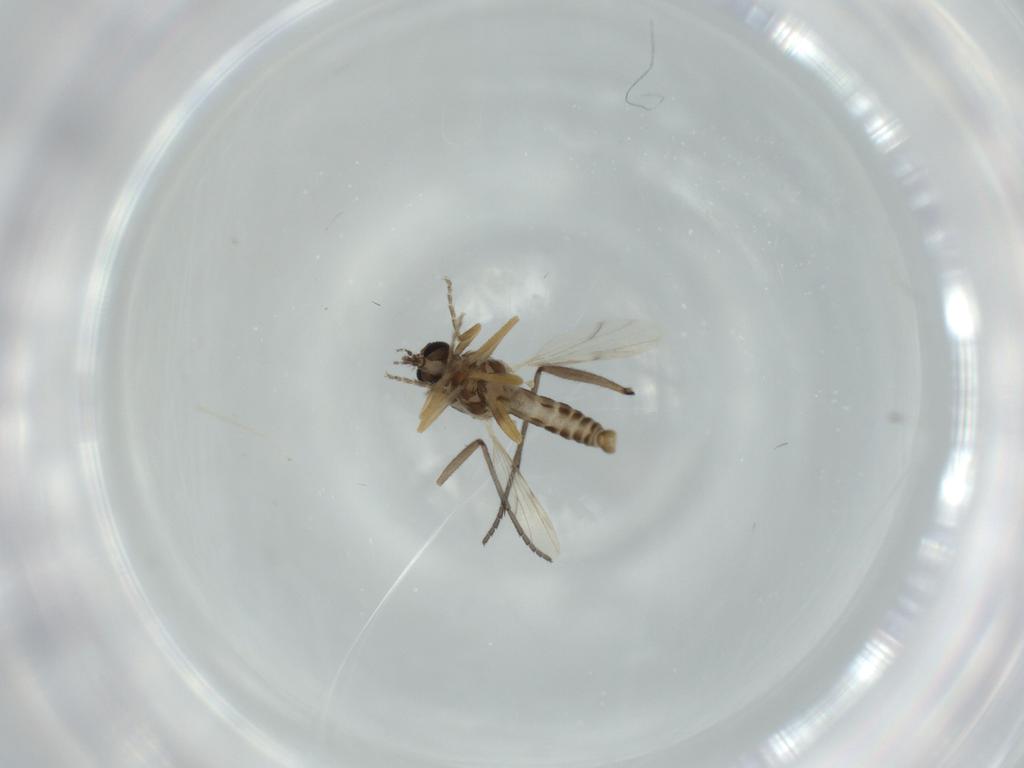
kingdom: Animalia
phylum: Arthropoda
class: Insecta
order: Diptera
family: Sciaridae
